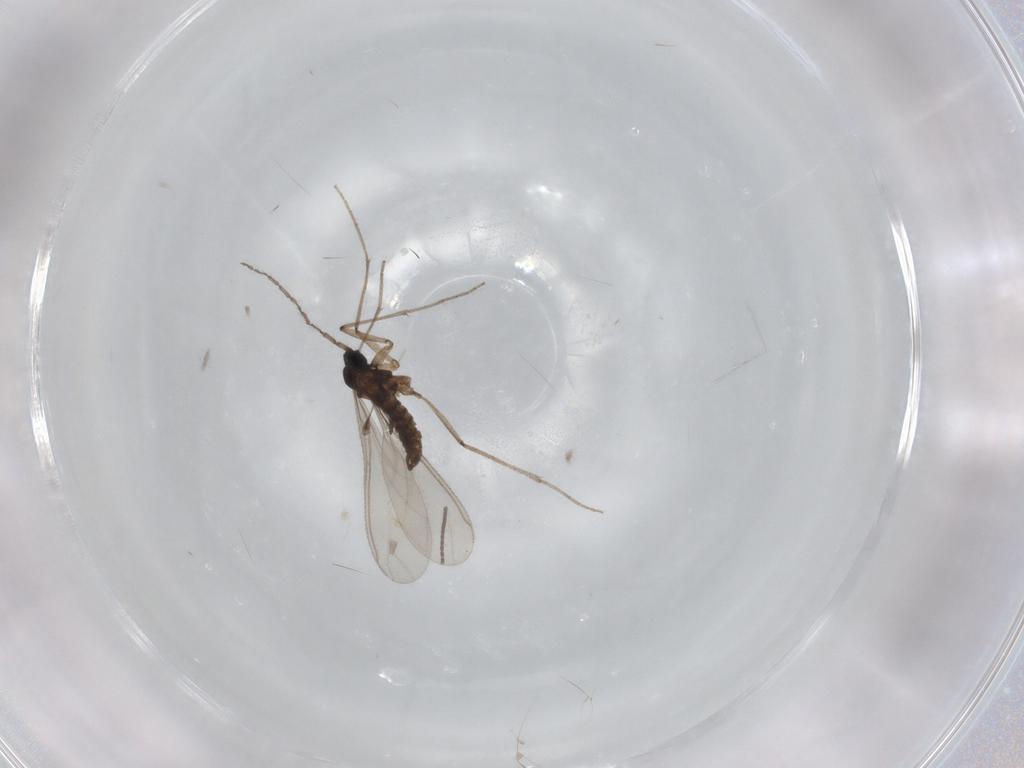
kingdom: Animalia
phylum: Arthropoda
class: Insecta
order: Diptera
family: Sciaridae
